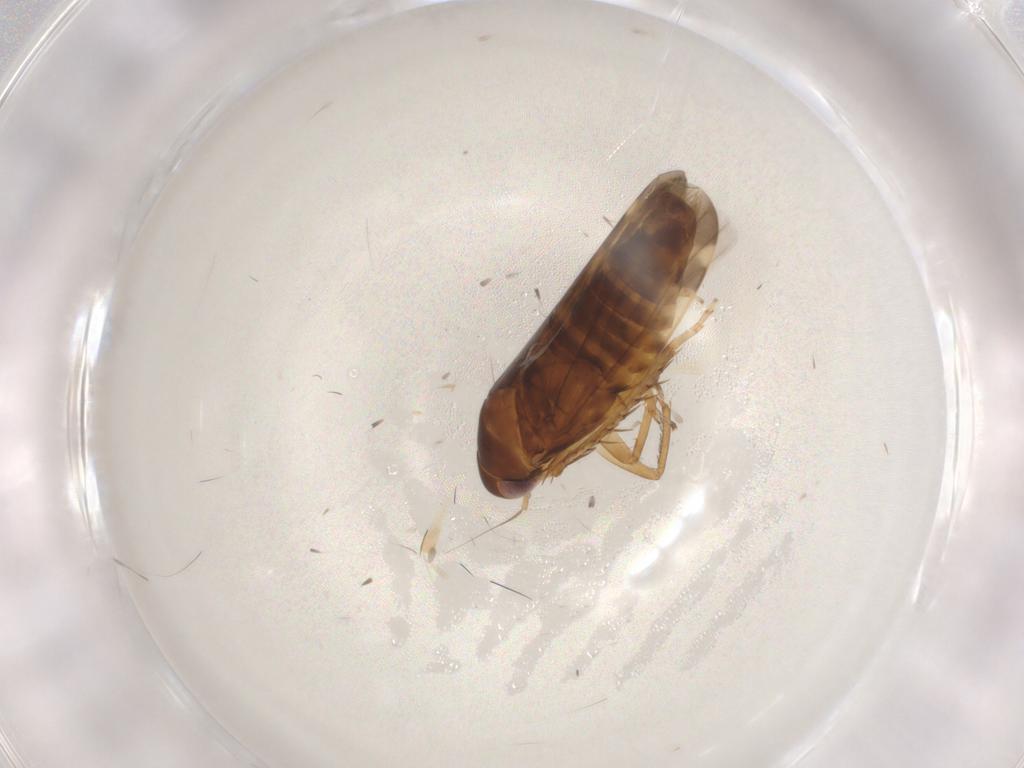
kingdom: Animalia
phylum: Arthropoda
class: Insecta
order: Hemiptera
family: Cicadellidae
